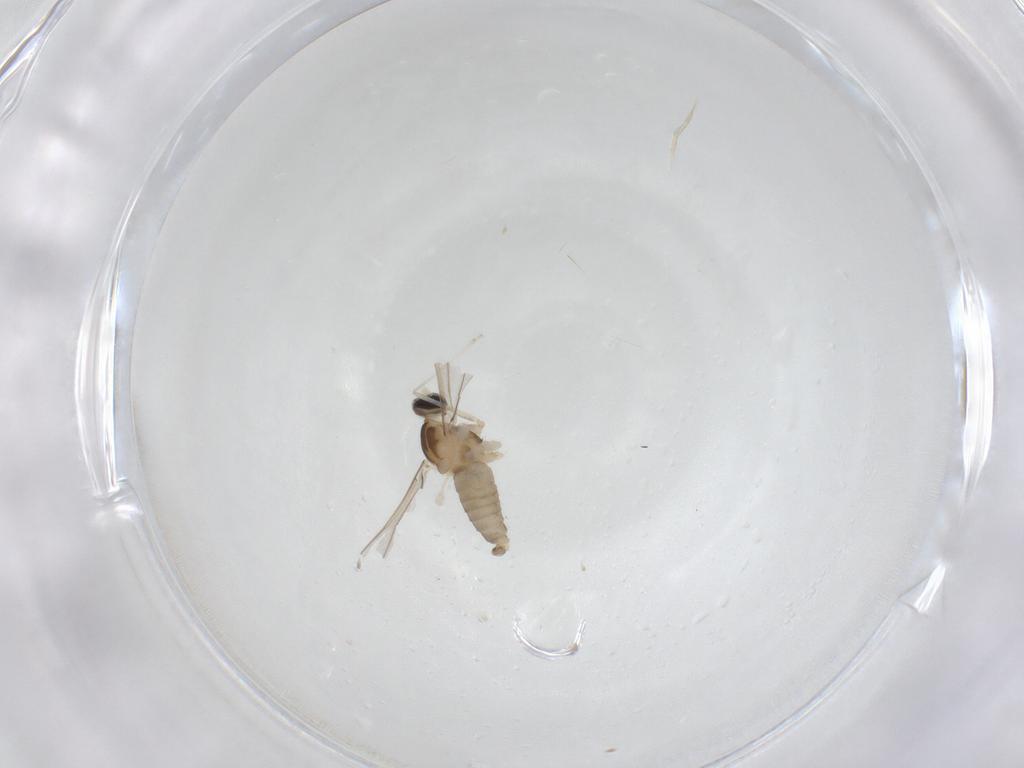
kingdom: Animalia
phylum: Arthropoda
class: Insecta
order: Diptera
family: Cecidomyiidae
